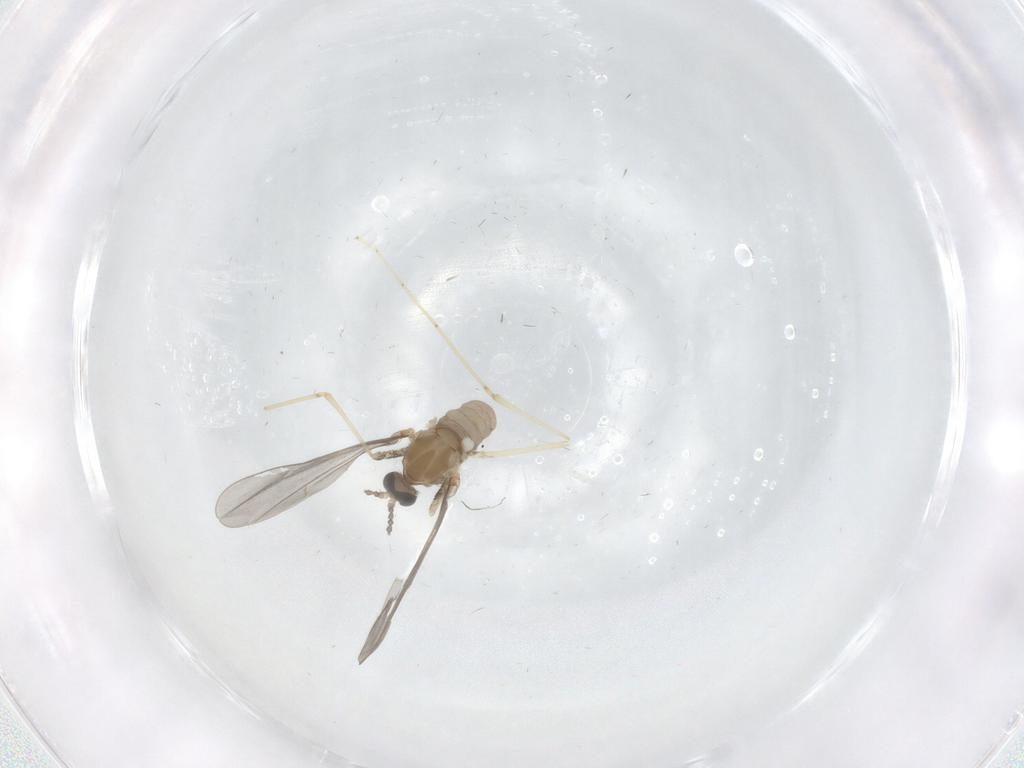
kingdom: Animalia
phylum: Arthropoda
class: Insecta
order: Diptera
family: Cecidomyiidae
